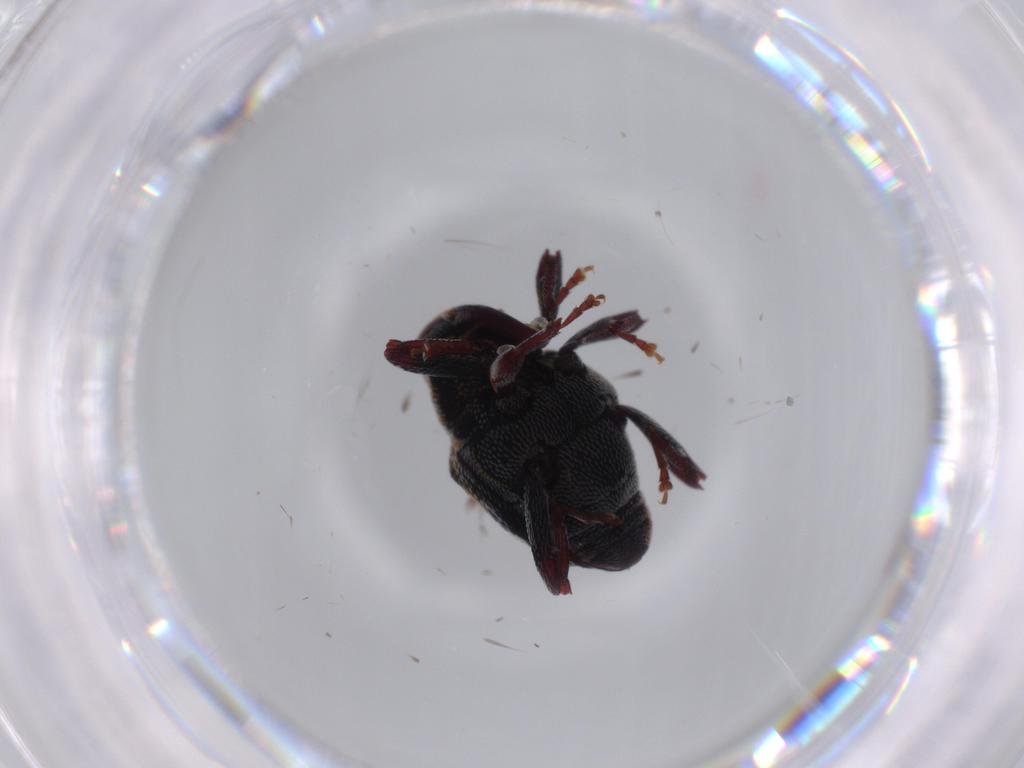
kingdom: Animalia
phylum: Arthropoda
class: Insecta
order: Coleoptera
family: Curculionidae
